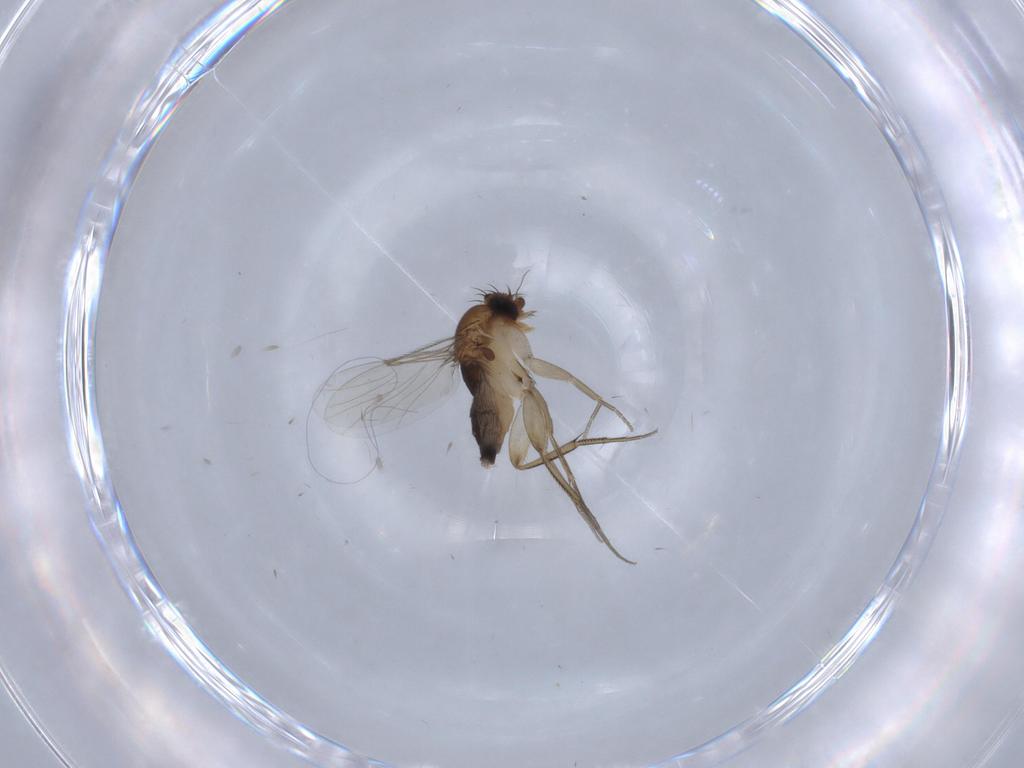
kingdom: Animalia
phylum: Arthropoda
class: Insecta
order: Diptera
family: Phoridae
